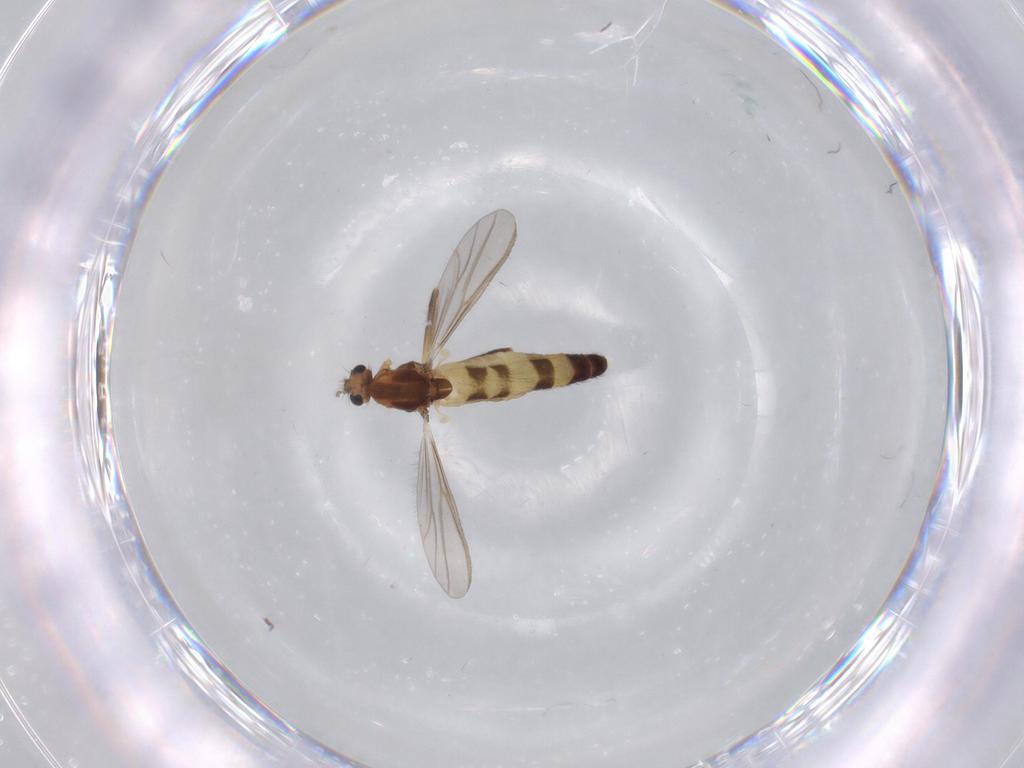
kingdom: Animalia
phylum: Arthropoda
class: Insecta
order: Diptera
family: Chironomidae
